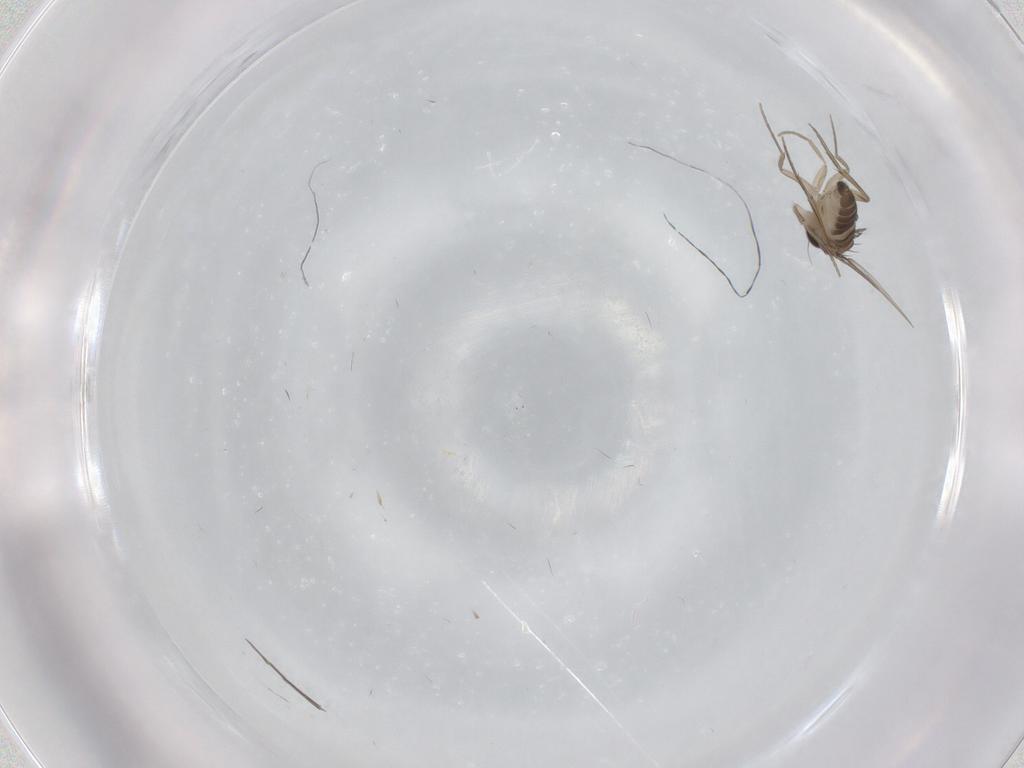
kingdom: Animalia
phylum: Arthropoda
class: Insecta
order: Diptera
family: Phoridae
